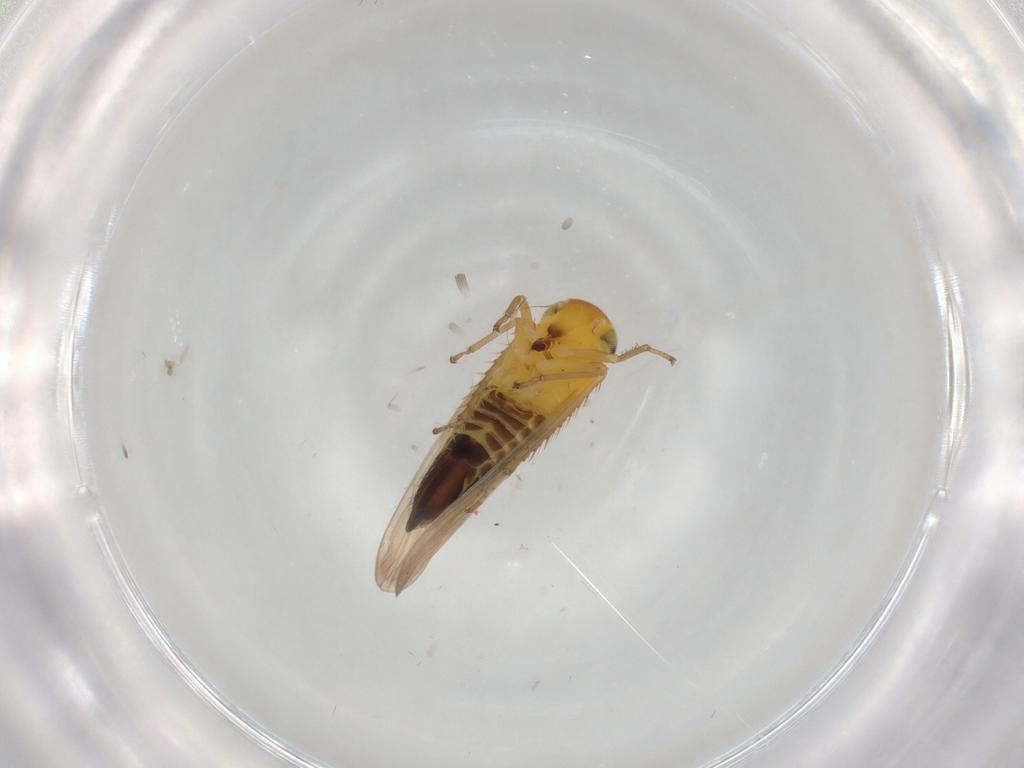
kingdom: Animalia
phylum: Arthropoda
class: Insecta
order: Hemiptera
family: Cicadellidae
